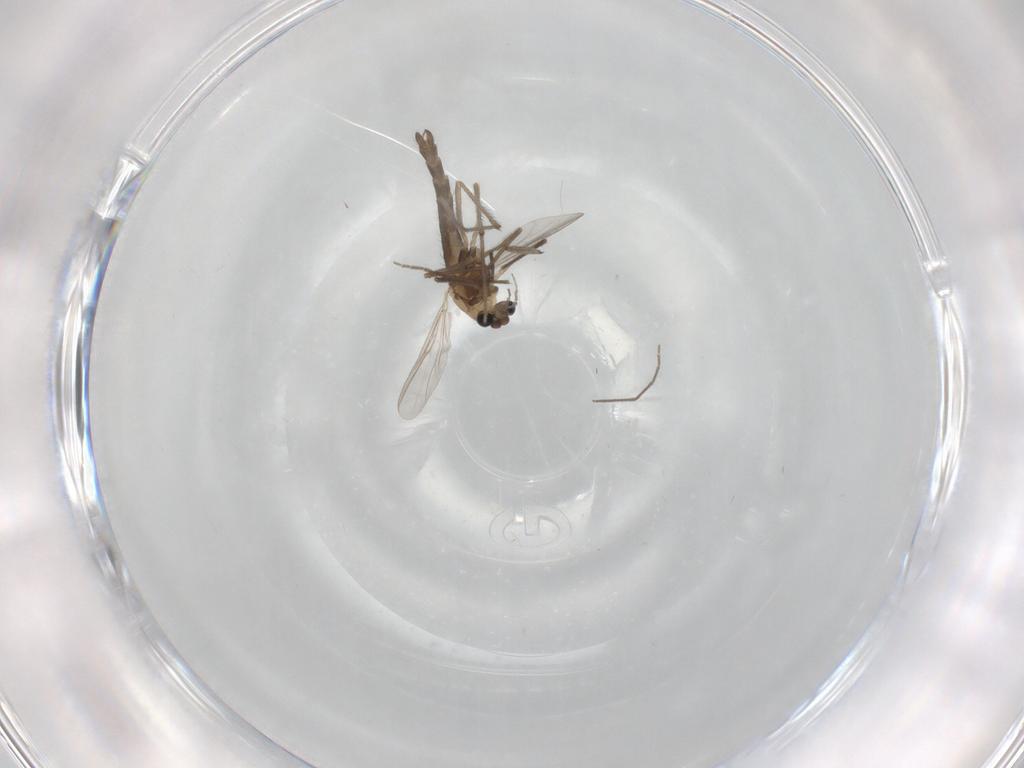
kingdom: Animalia
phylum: Arthropoda
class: Insecta
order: Diptera
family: Chironomidae
